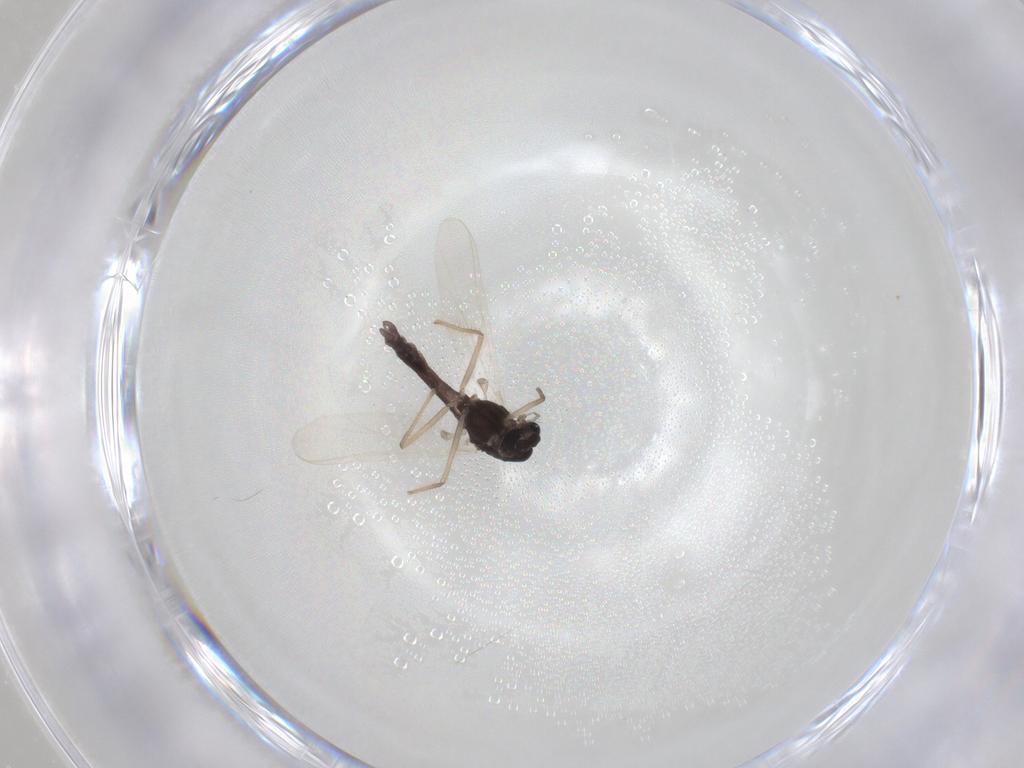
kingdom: Animalia
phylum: Arthropoda
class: Insecta
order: Diptera
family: Chironomidae
